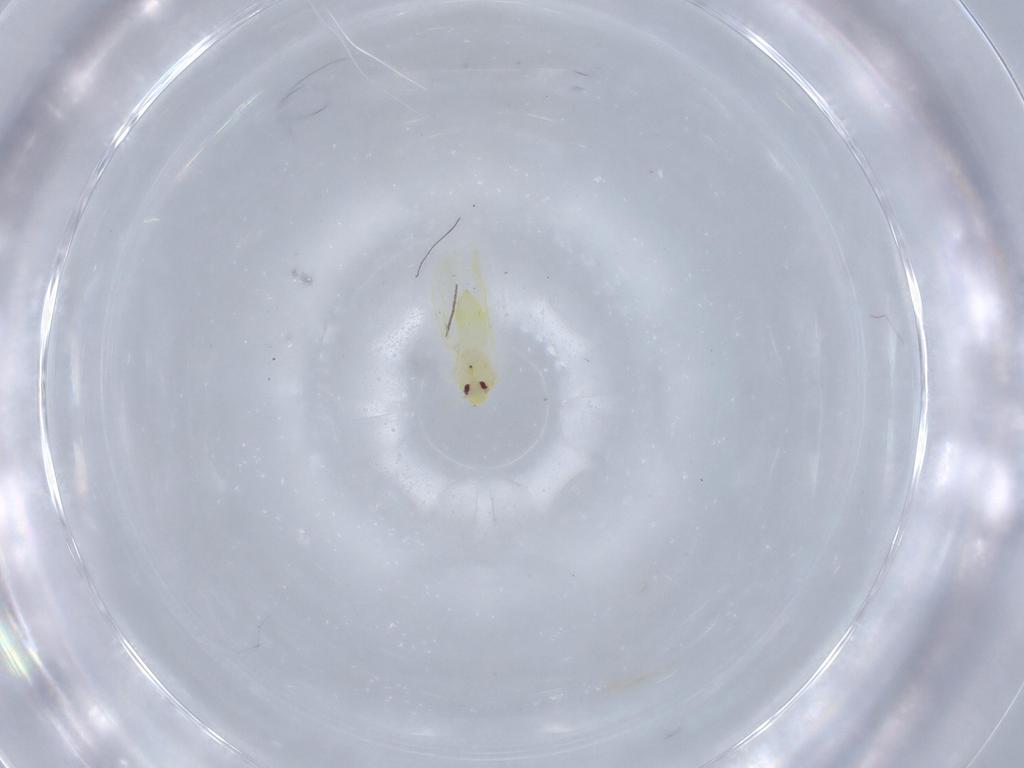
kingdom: Animalia
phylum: Arthropoda
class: Insecta
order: Hemiptera
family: Aleyrodidae
